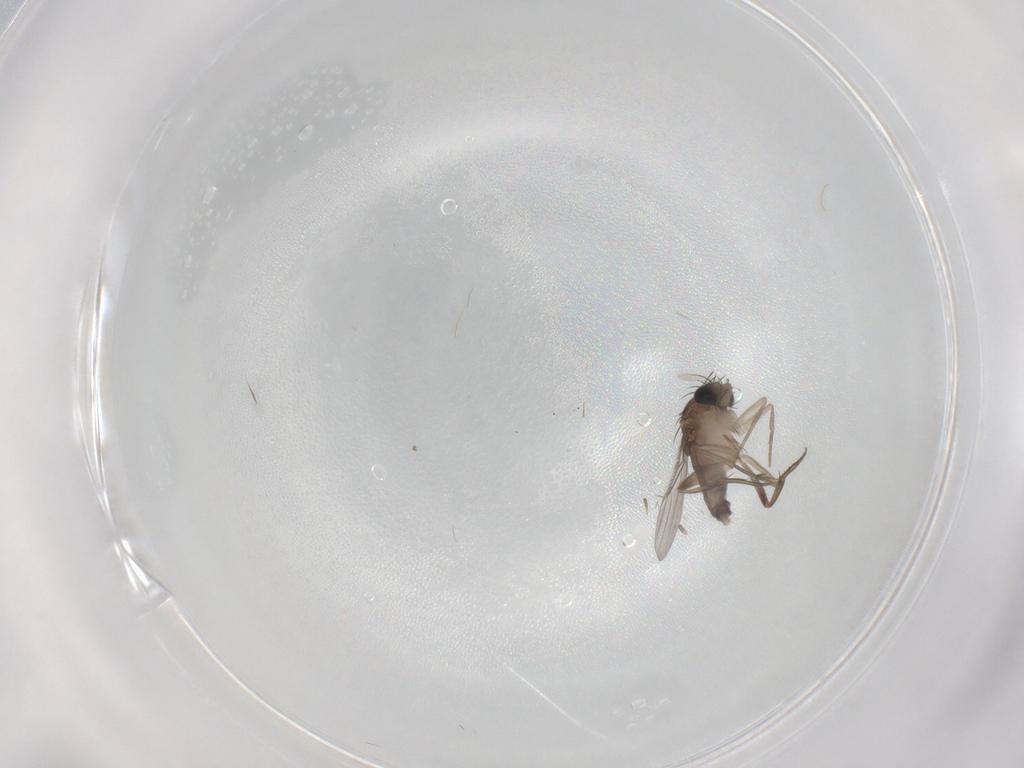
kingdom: Animalia
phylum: Arthropoda
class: Insecta
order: Diptera
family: Phoridae
